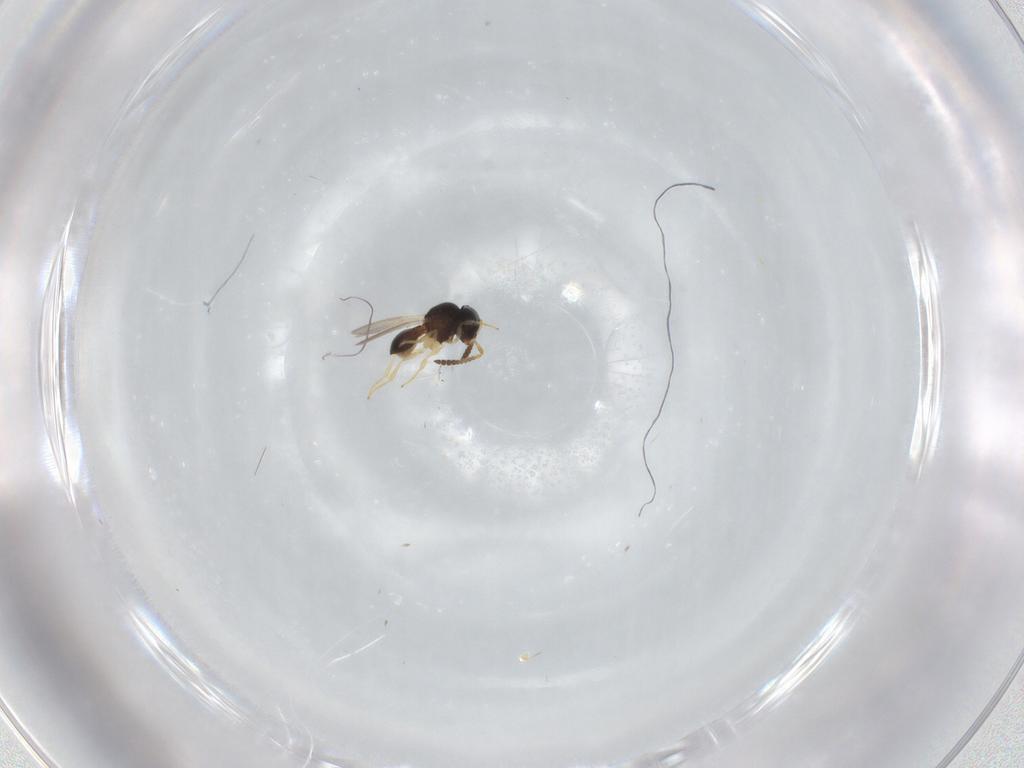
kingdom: Animalia
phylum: Arthropoda
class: Insecta
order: Hymenoptera
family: Scelionidae
